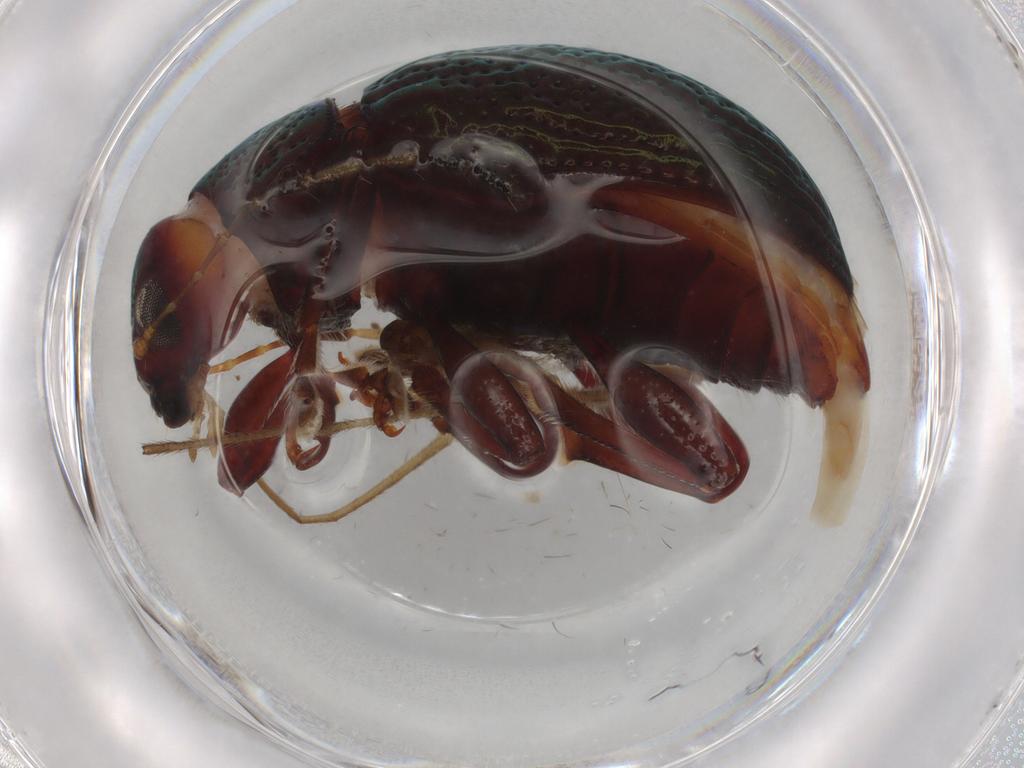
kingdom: Animalia
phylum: Arthropoda
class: Insecta
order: Coleoptera
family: Chrysomelidae
